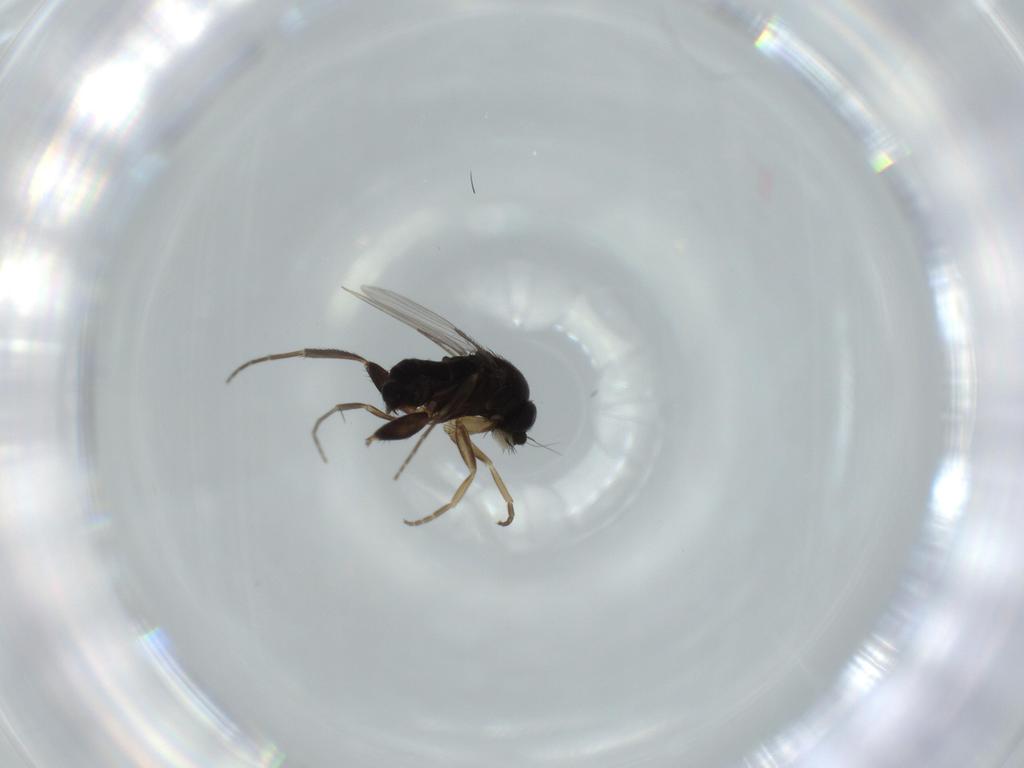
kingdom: Animalia
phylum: Arthropoda
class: Insecta
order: Diptera
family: Phoridae
